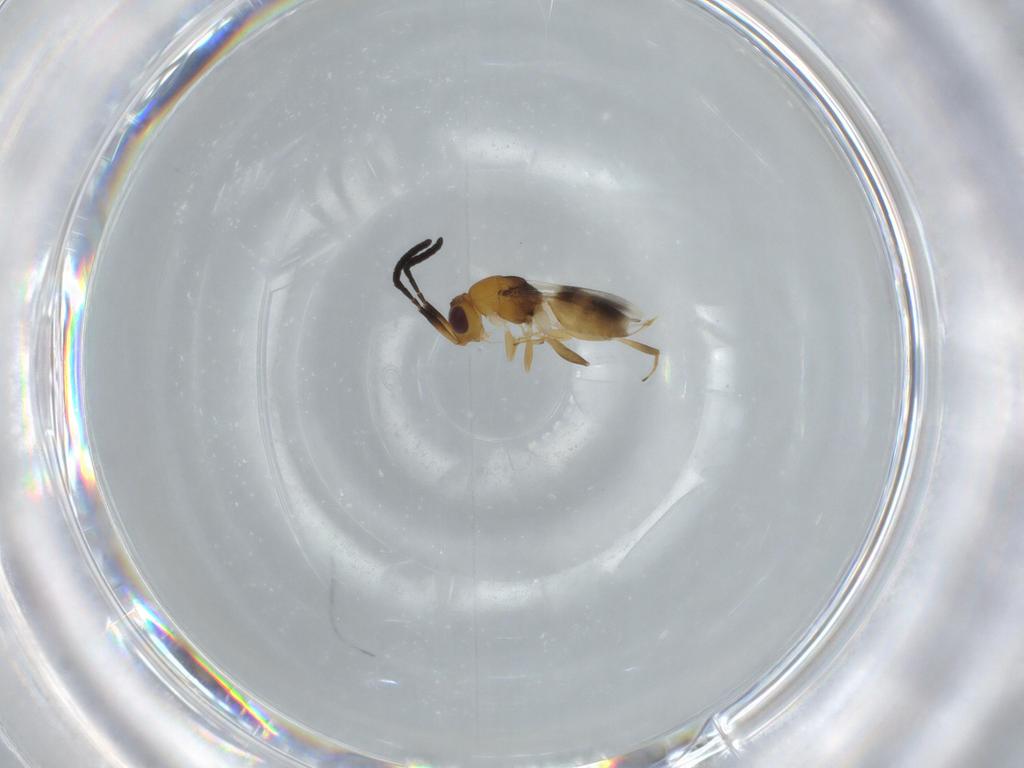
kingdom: Animalia
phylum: Arthropoda
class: Insecta
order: Hymenoptera
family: Megaspilidae
